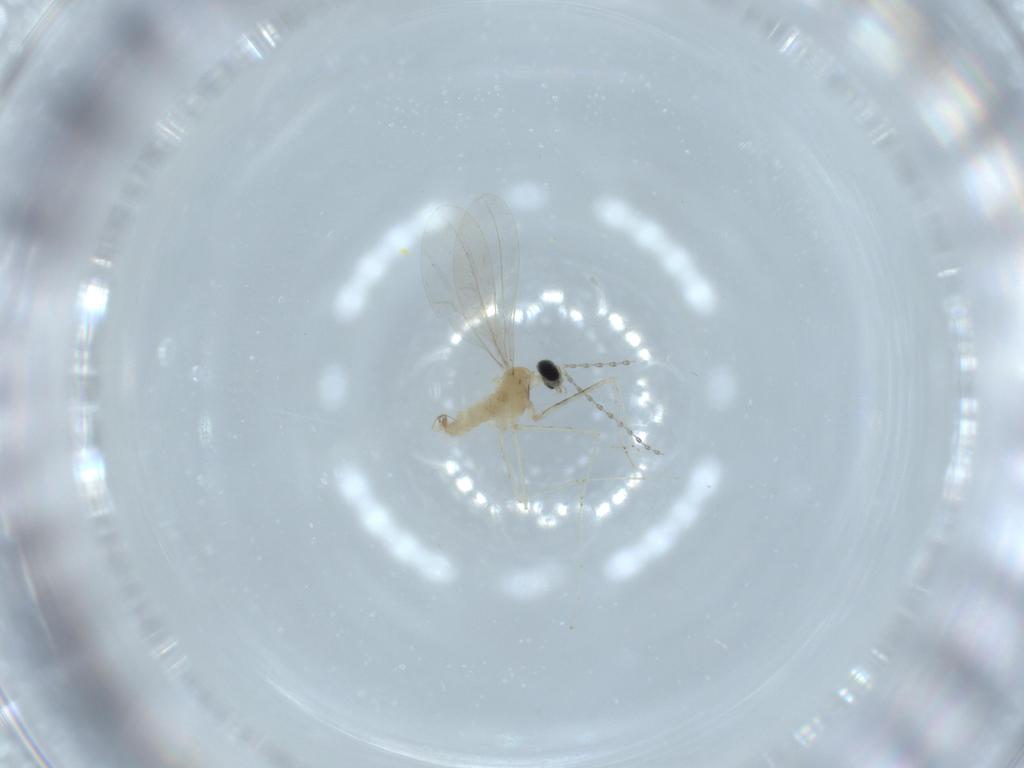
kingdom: Animalia
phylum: Arthropoda
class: Insecta
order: Diptera
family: Cecidomyiidae
